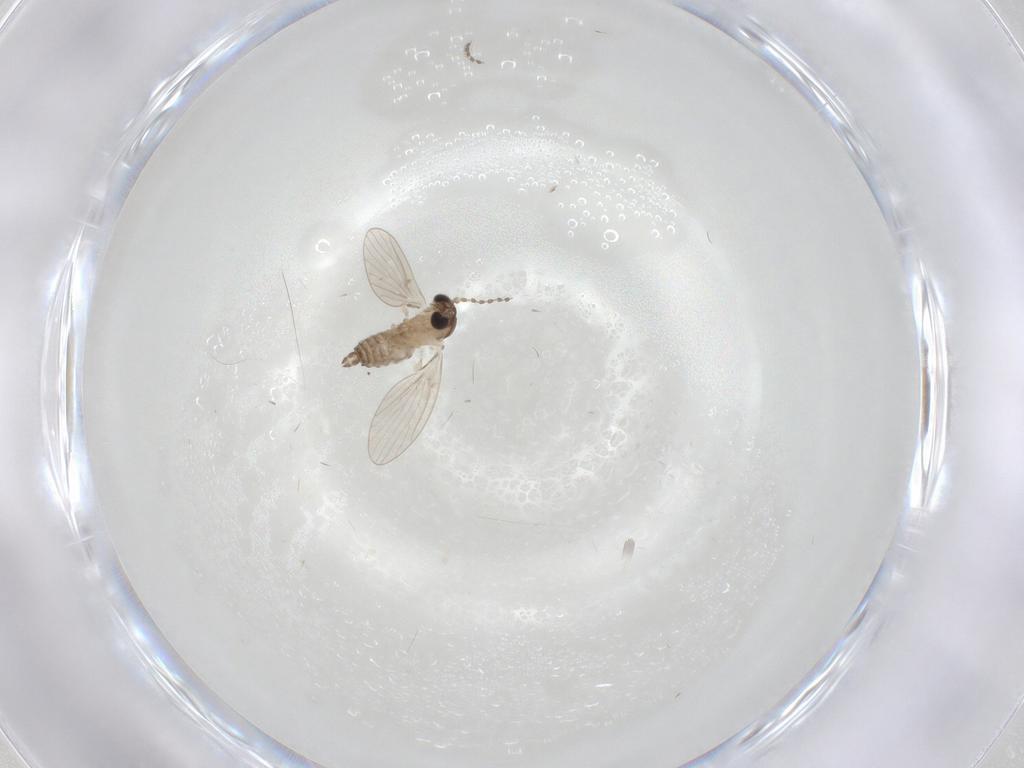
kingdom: Animalia
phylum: Arthropoda
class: Insecta
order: Diptera
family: Psychodidae
